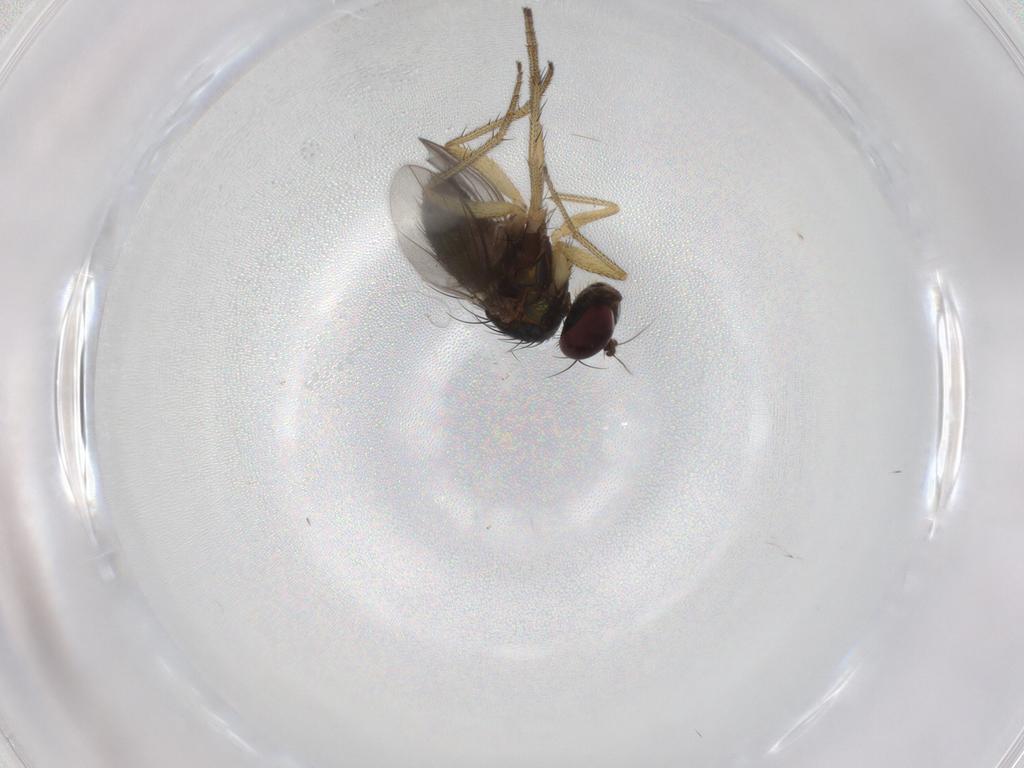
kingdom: Animalia
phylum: Arthropoda
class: Insecta
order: Diptera
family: Dolichopodidae
